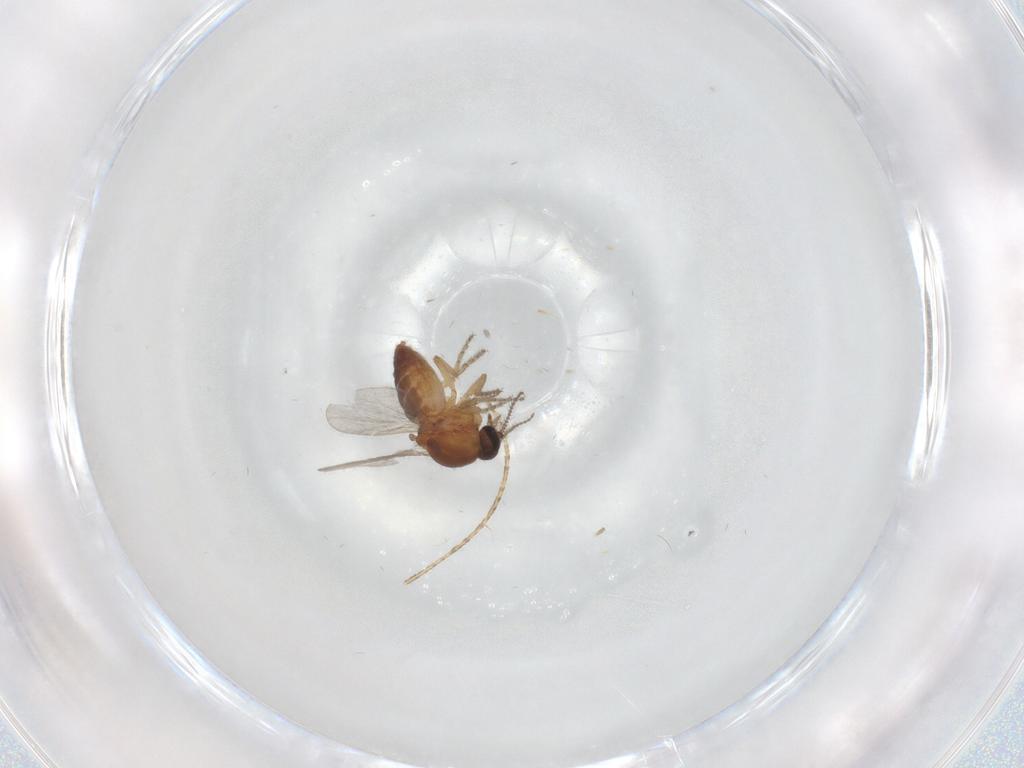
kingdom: Animalia
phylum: Arthropoda
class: Insecta
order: Diptera
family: Ceratopogonidae
